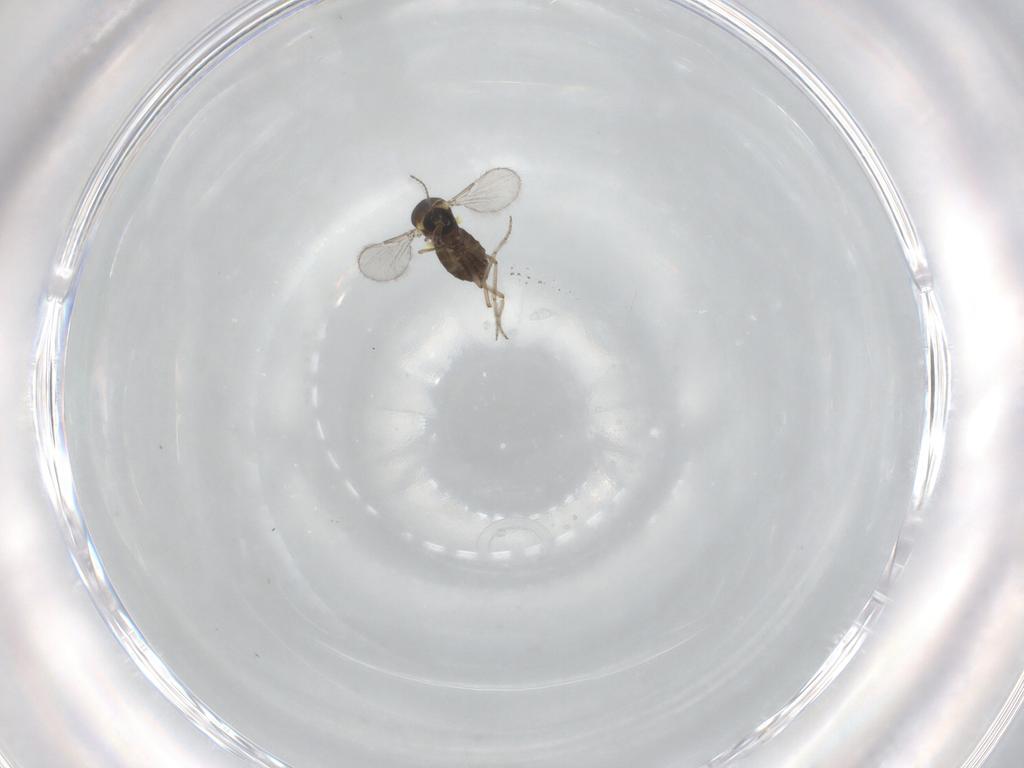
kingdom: Animalia
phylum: Arthropoda
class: Insecta
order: Diptera
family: Ceratopogonidae
